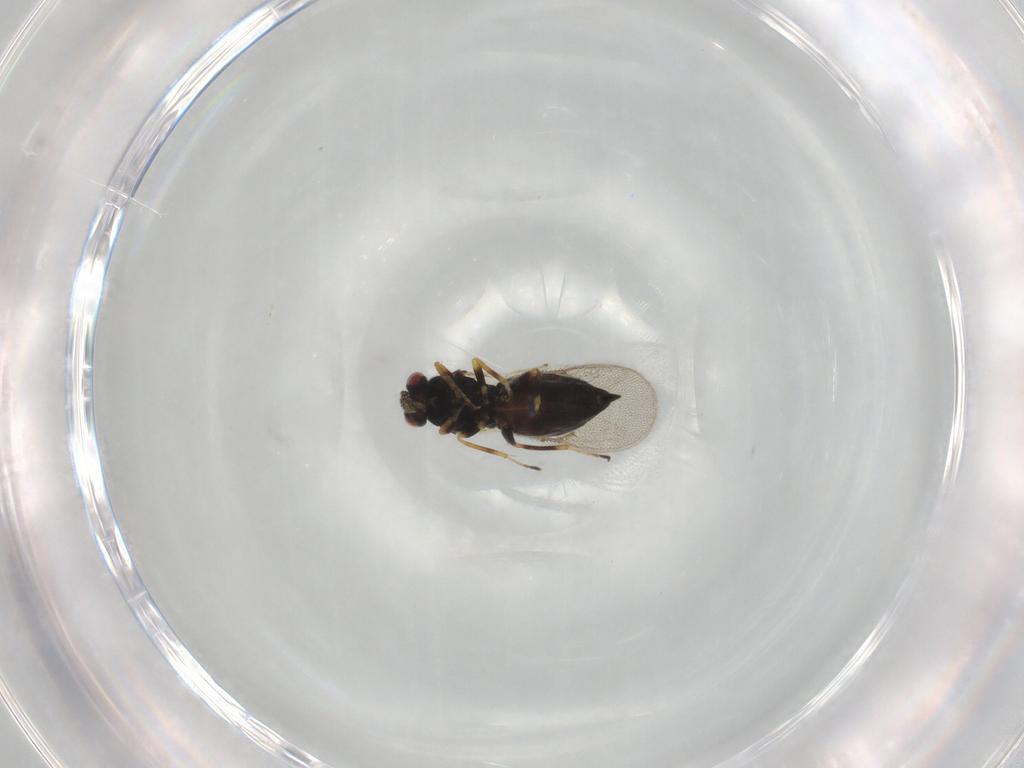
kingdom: Animalia
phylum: Arthropoda
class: Insecta
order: Hymenoptera
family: Eulophidae
